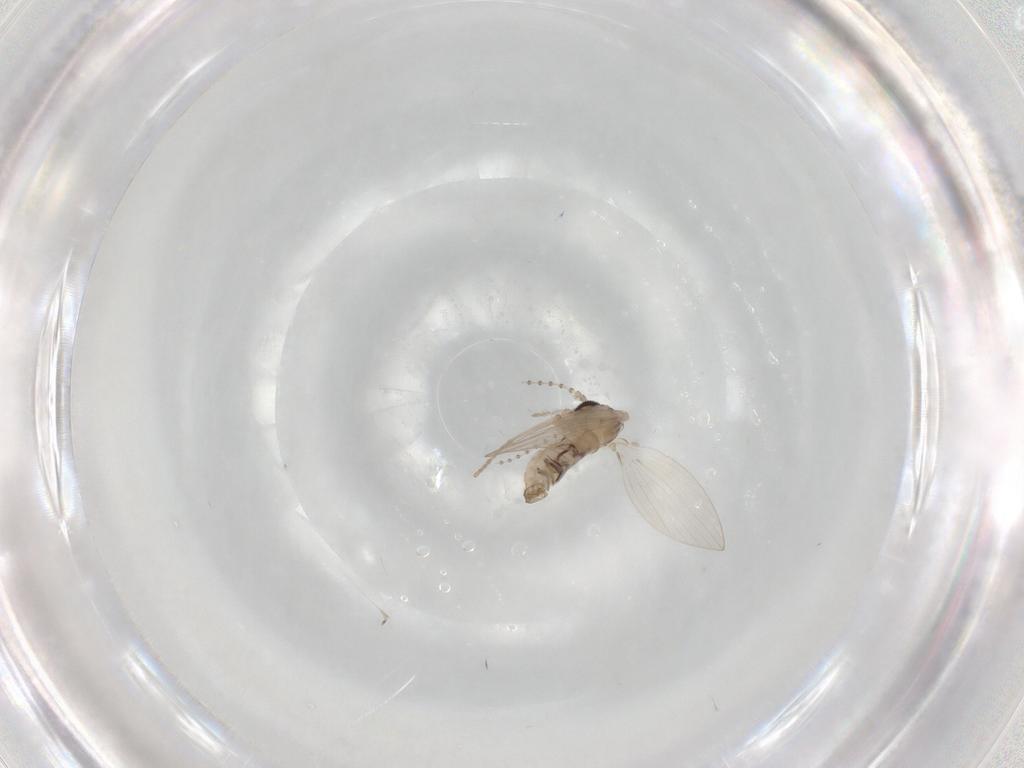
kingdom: Animalia
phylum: Arthropoda
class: Insecta
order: Diptera
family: Psychodidae
